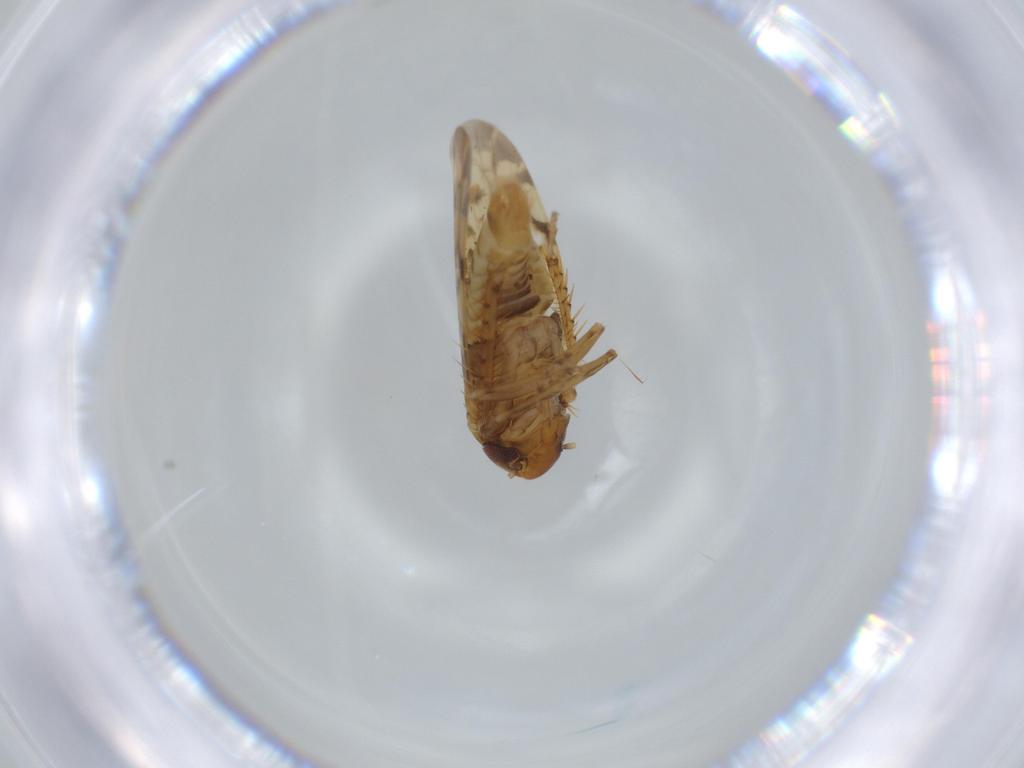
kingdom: Animalia
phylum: Arthropoda
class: Insecta
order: Hemiptera
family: Cicadellidae
